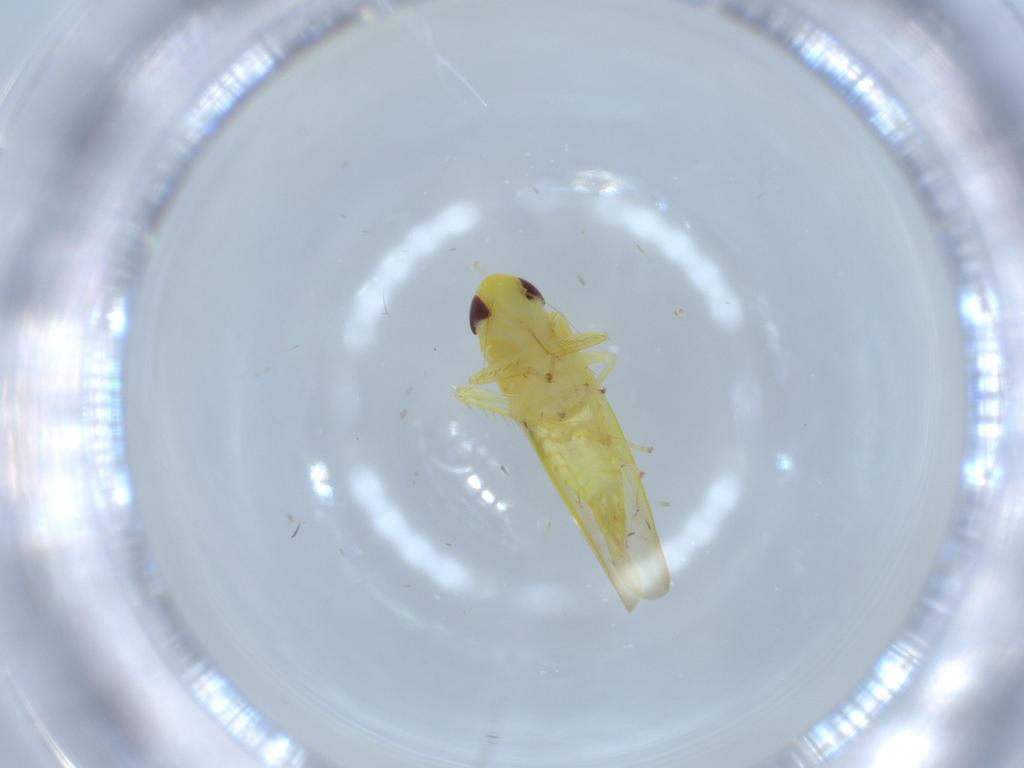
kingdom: Animalia
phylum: Arthropoda
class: Insecta
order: Hemiptera
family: Cicadellidae
